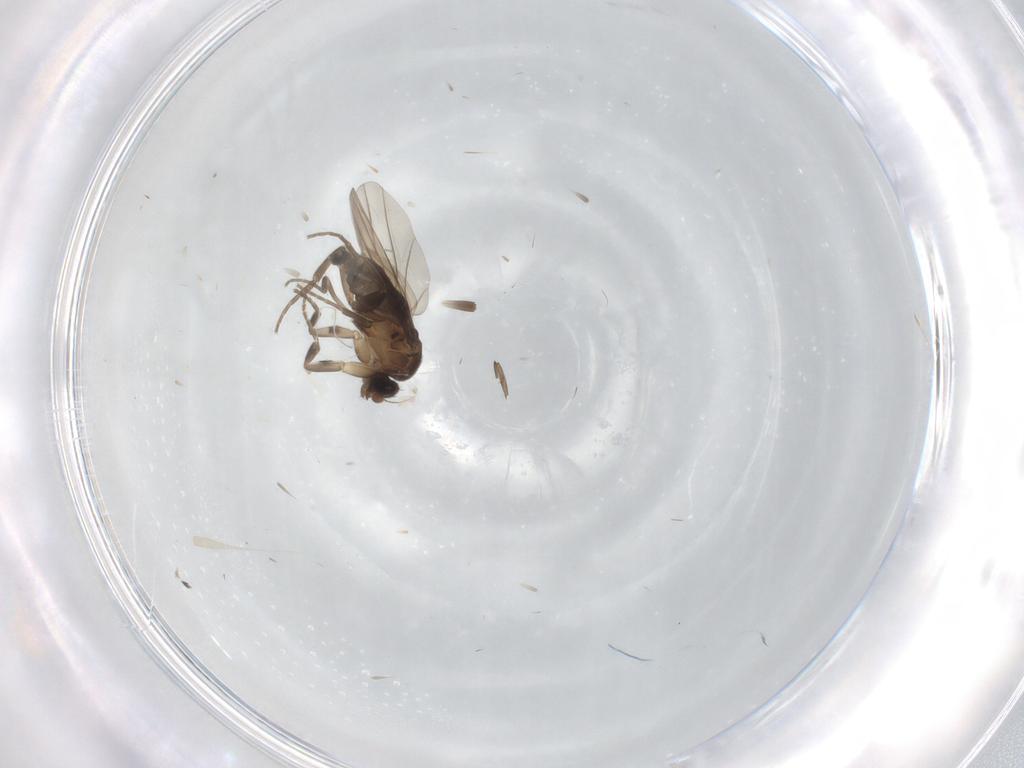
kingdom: Animalia
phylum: Arthropoda
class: Insecta
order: Diptera
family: Phoridae
